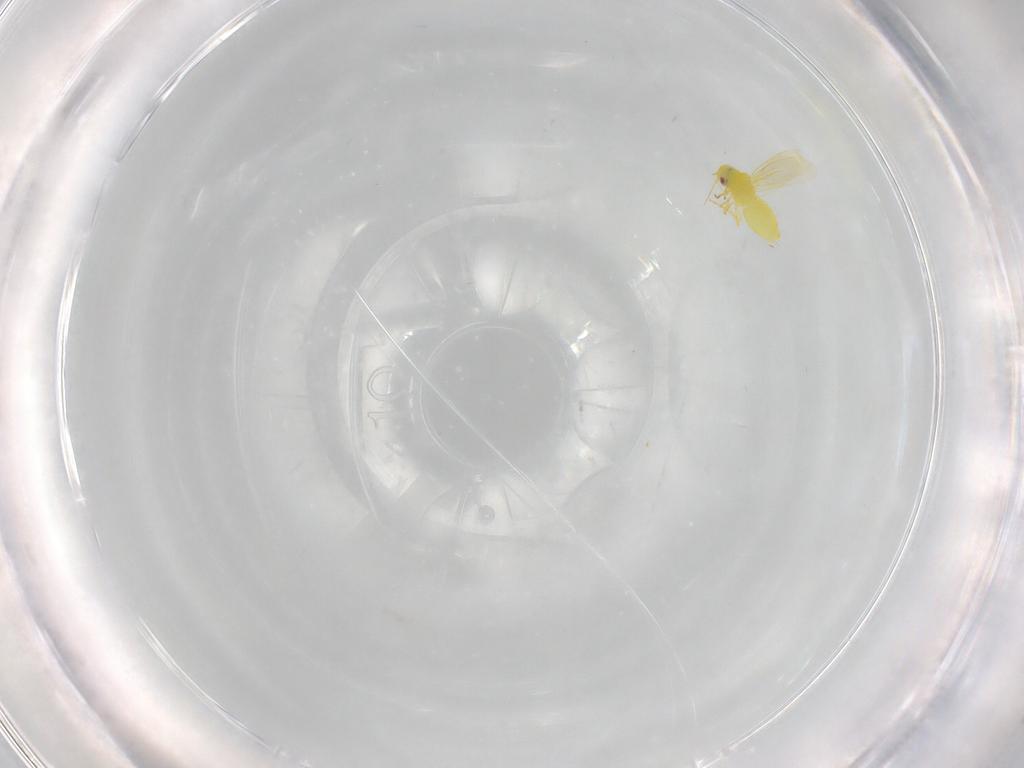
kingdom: Animalia
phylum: Arthropoda
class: Insecta
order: Hemiptera
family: Aleyrodidae
